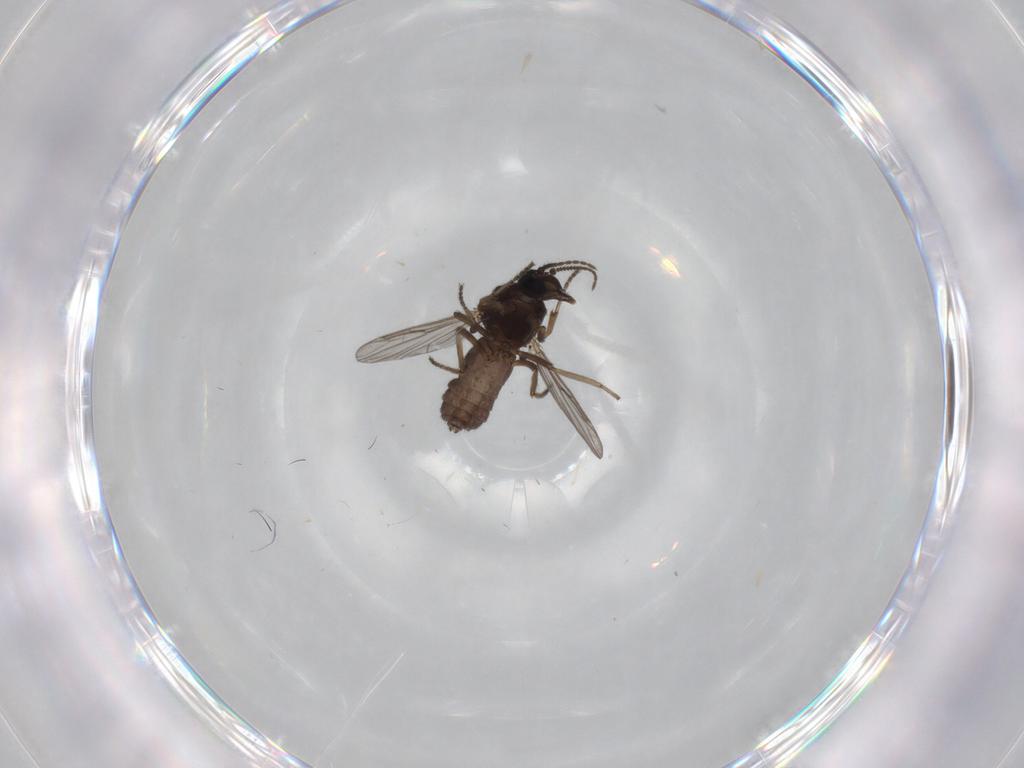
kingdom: Animalia
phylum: Arthropoda
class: Insecta
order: Diptera
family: Ceratopogonidae
